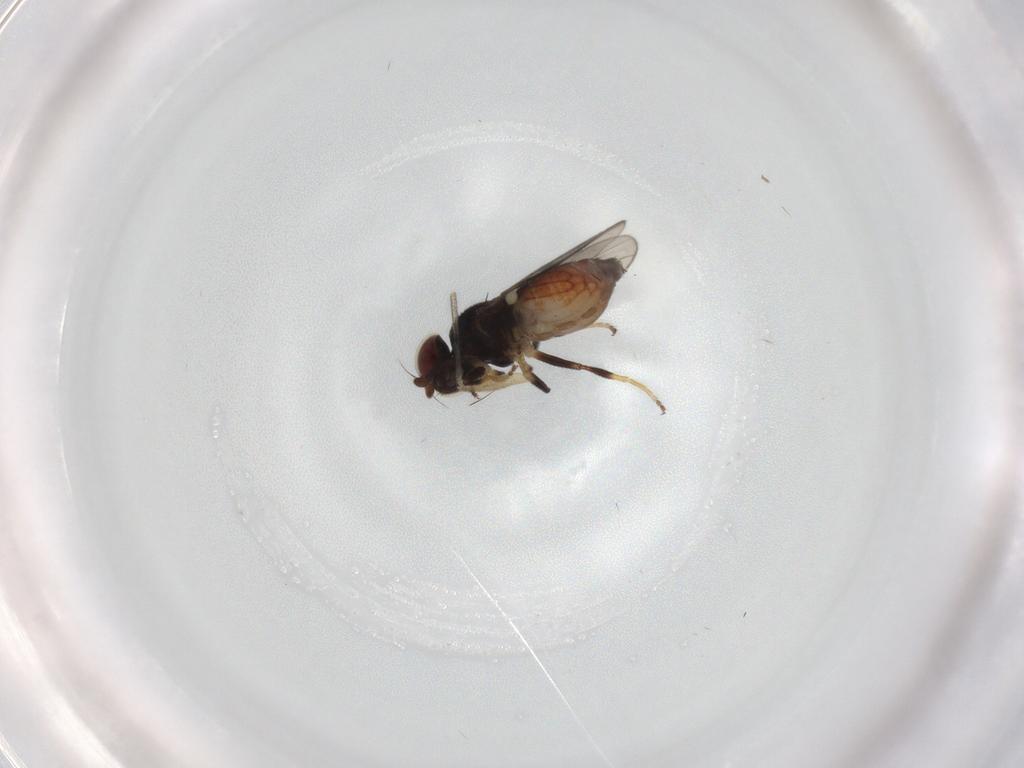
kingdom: Animalia
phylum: Arthropoda
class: Insecta
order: Diptera
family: Chloropidae
